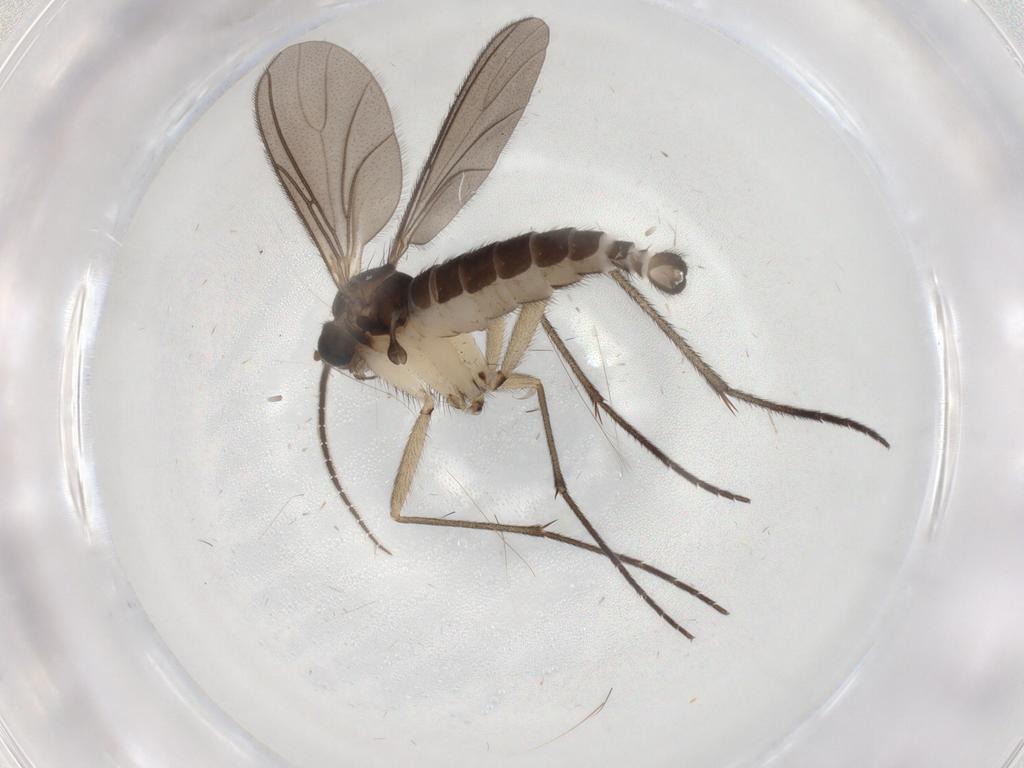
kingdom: Animalia
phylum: Arthropoda
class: Insecta
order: Diptera
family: Sciaridae
